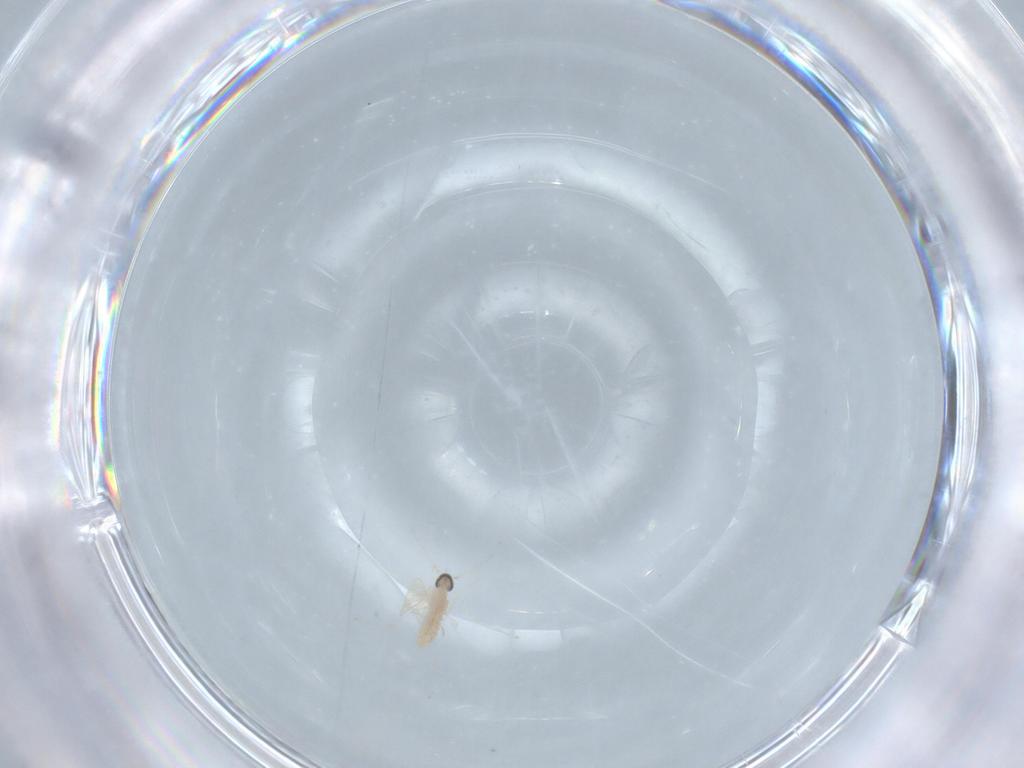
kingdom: Animalia
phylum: Arthropoda
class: Insecta
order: Diptera
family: Cecidomyiidae
